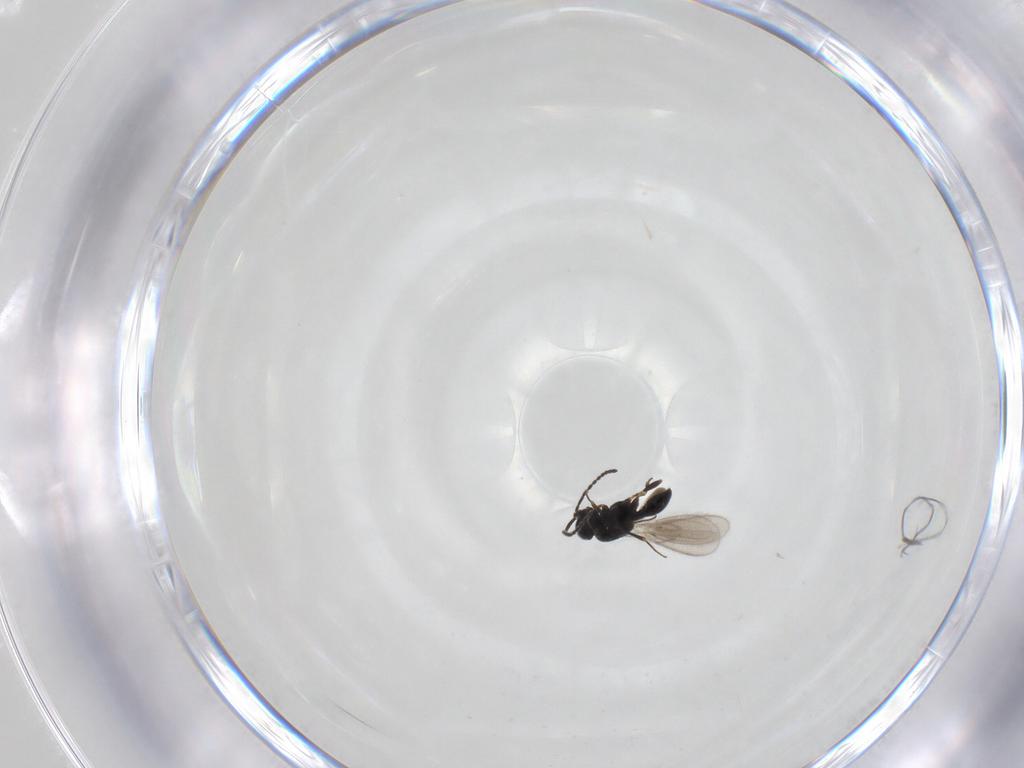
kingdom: Animalia
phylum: Arthropoda
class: Insecta
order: Hymenoptera
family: Scelionidae
